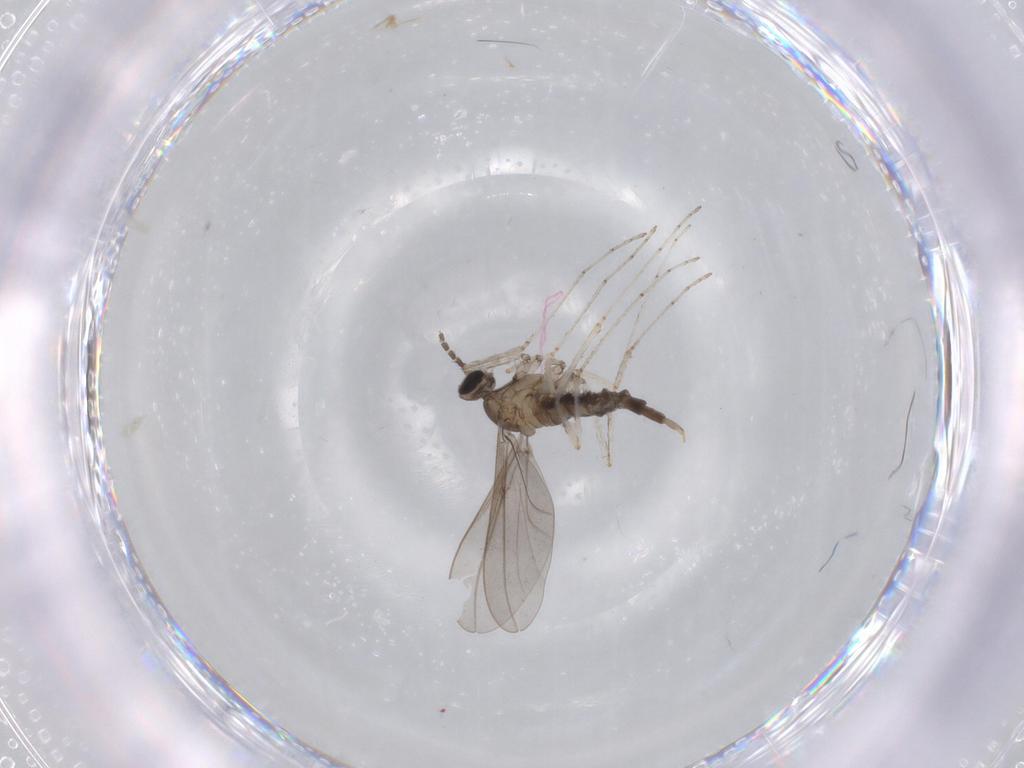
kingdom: Animalia
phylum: Arthropoda
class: Insecta
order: Diptera
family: Cecidomyiidae
